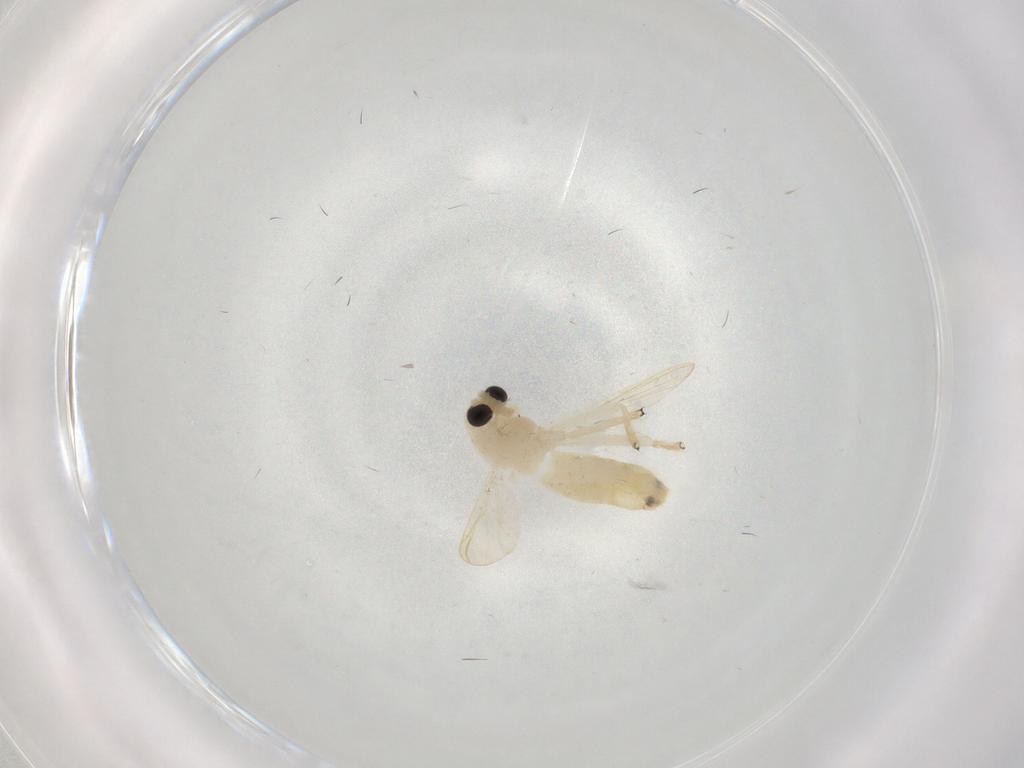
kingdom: Animalia
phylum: Arthropoda
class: Insecta
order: Diptera
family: Chironomidae
